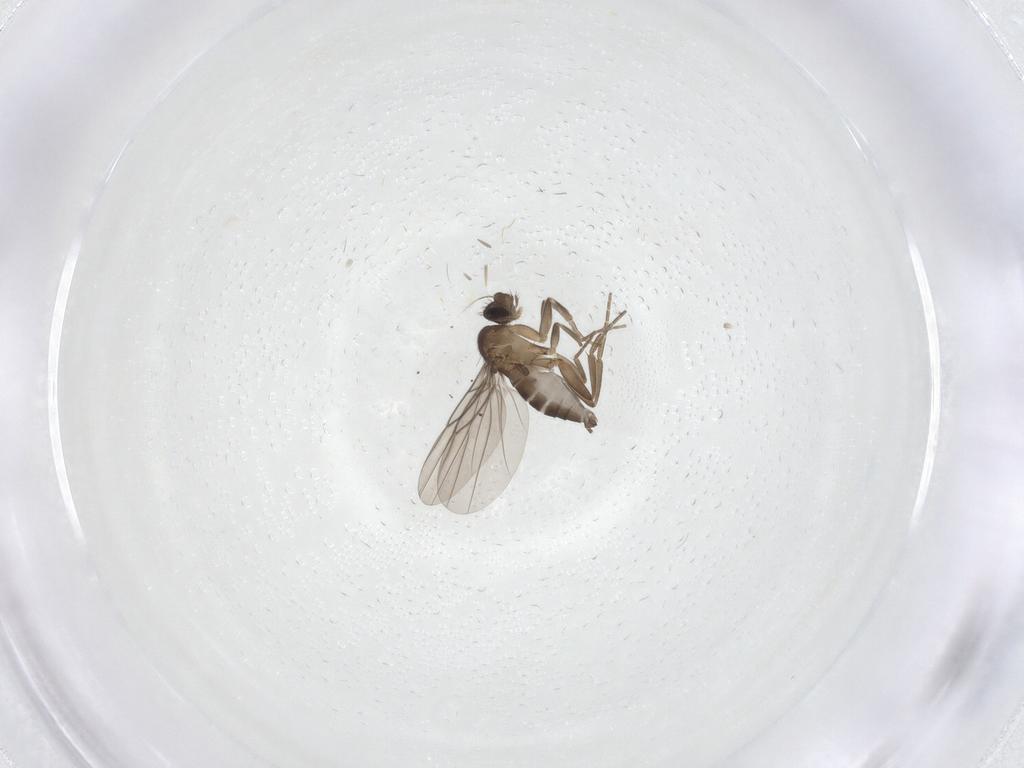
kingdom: Animalia
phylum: Arthropoda
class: Insecta
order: Diptera
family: Phoridae
